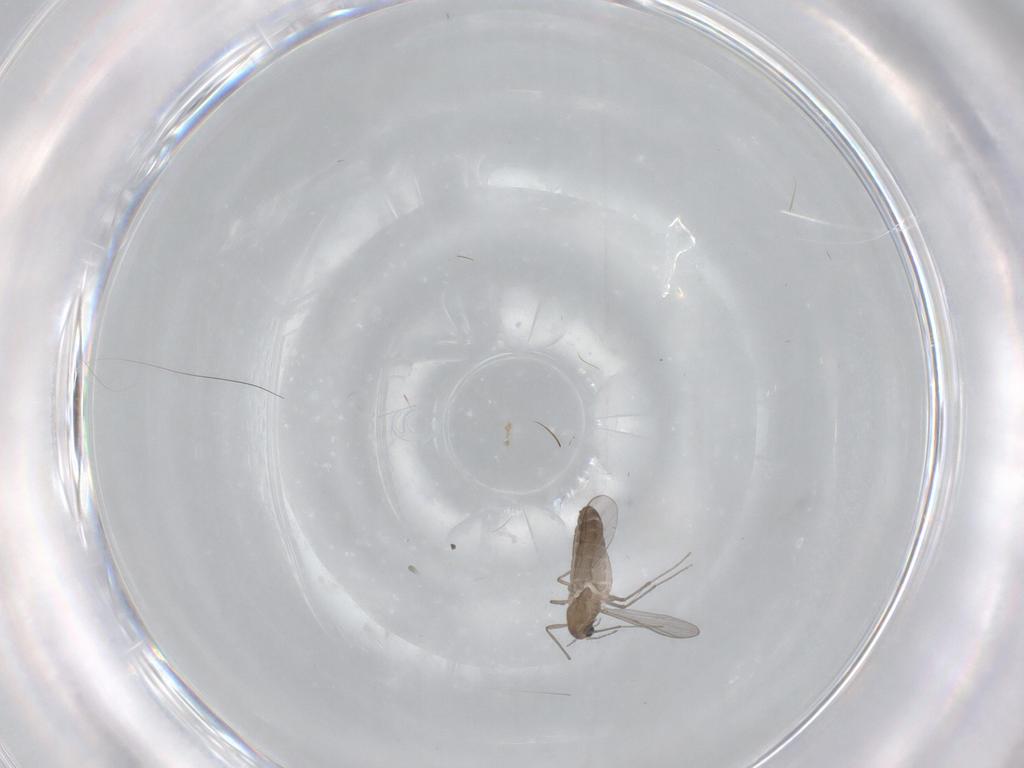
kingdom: Animalia
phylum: Arthropoda
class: Insecta
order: Diptera
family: Chironomidae
